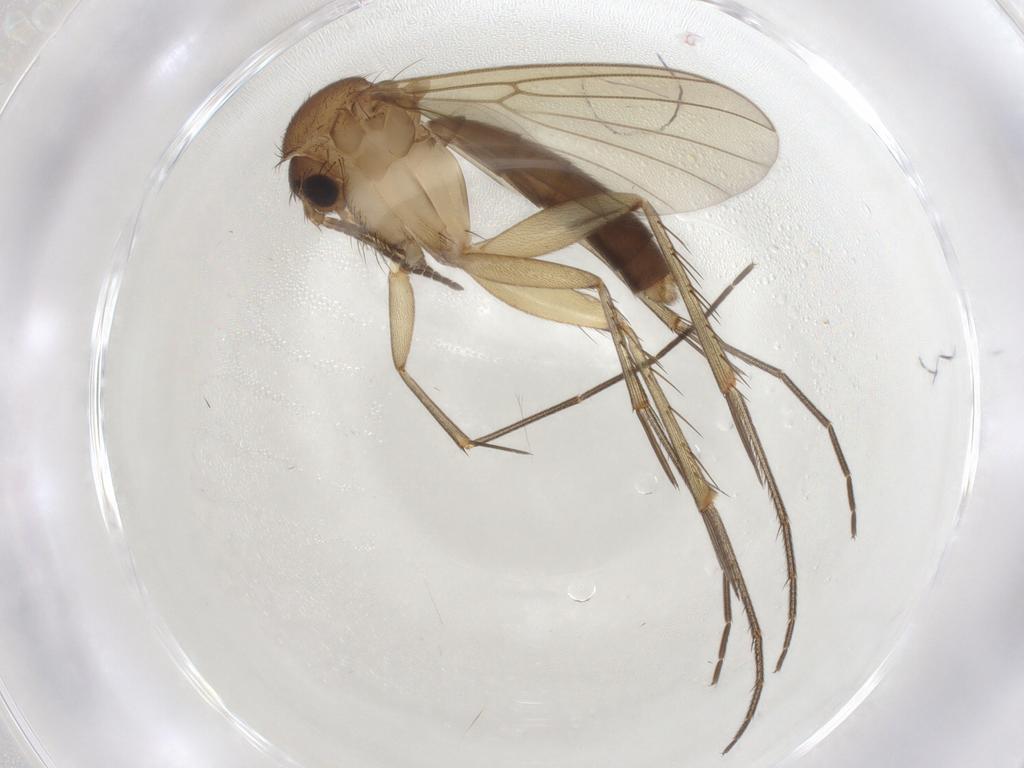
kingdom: Animalia
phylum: Arthropoda
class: Insecta
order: Diptera
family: Mycetophilidae
